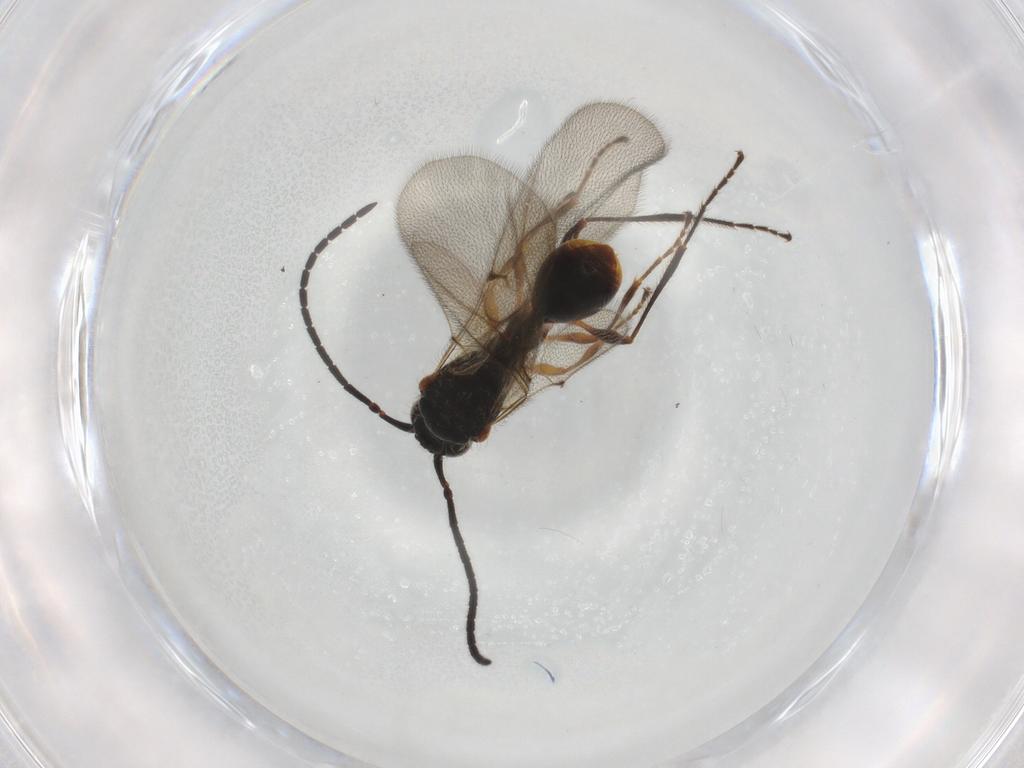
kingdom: Animalia
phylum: Arthropoda
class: Insecta
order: Hymenoptera
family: Diapriidae
